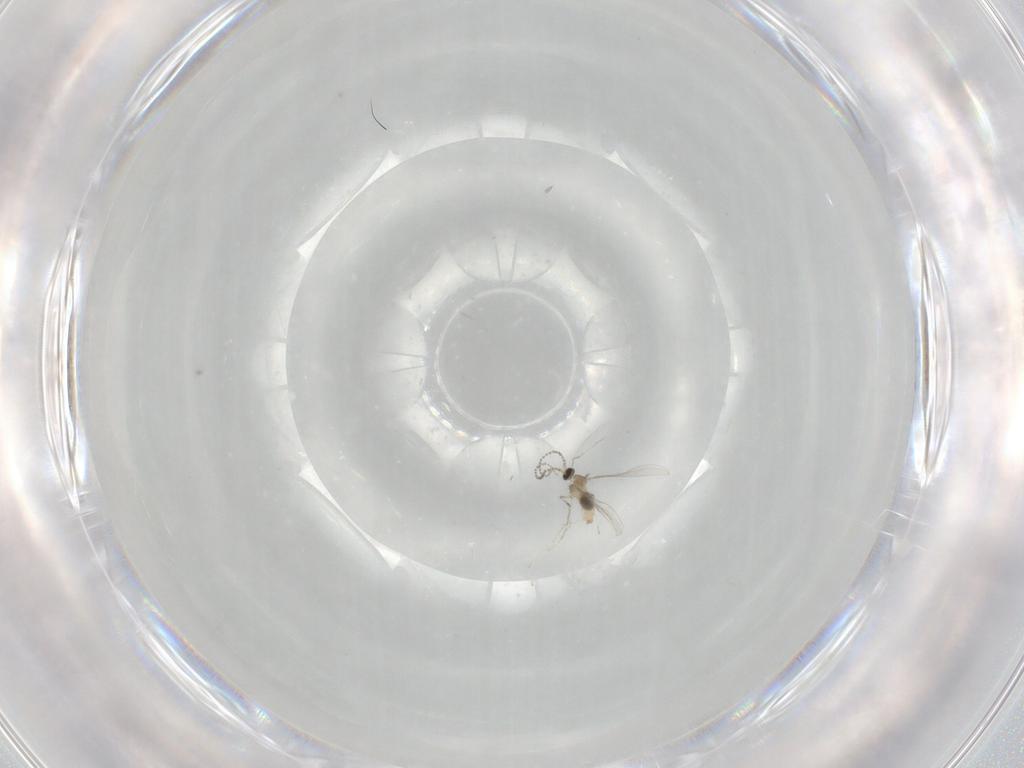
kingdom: Animalia
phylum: Arthropoda
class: Insecta
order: Diptera
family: Cecidomyiidae
